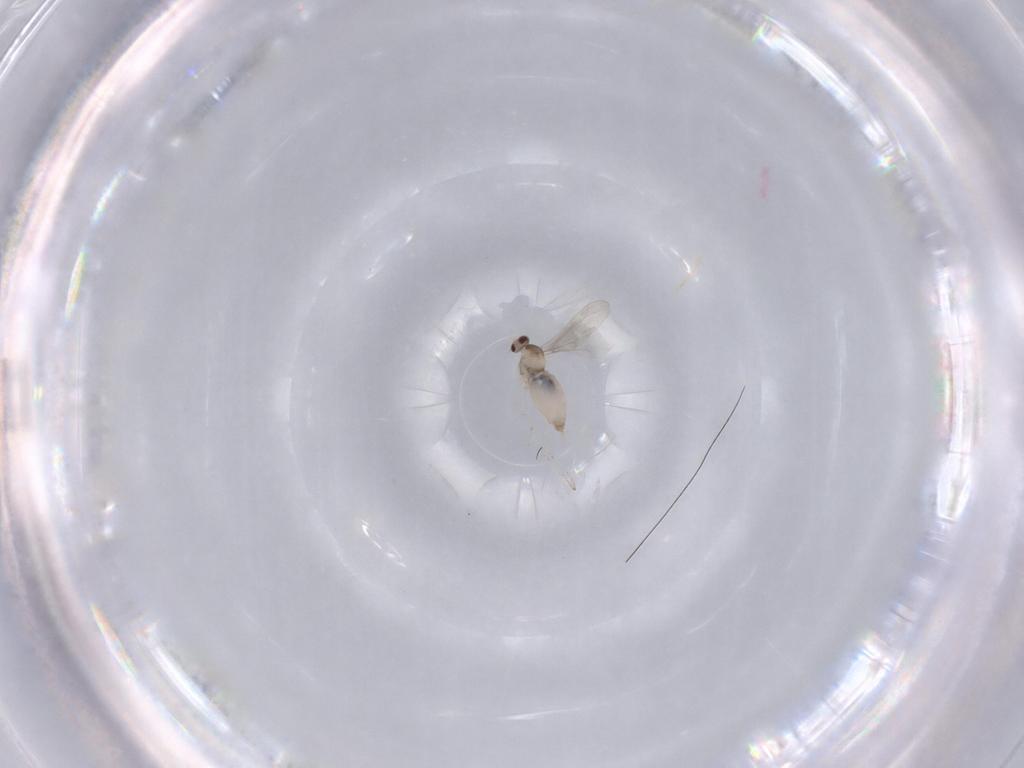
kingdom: Animalia
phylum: Arthropoda
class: Insecta
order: Diptera
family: Cecidomyiidae
